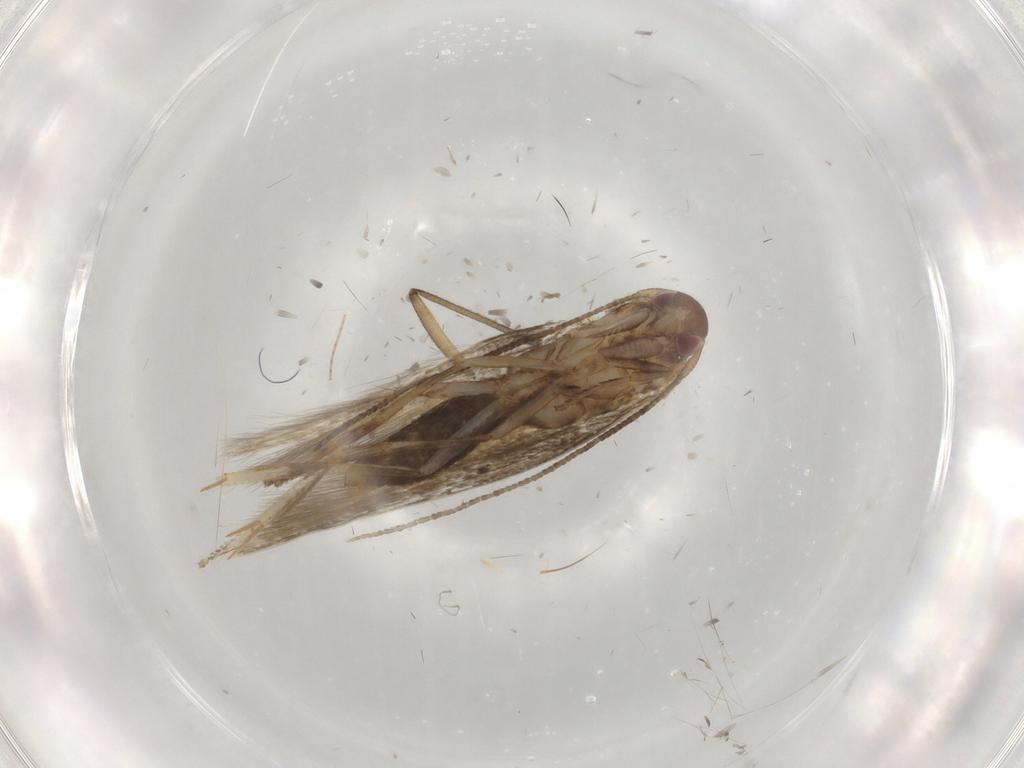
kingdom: Animalia
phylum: Arthropoda
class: Insecta
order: Lepidoptera
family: Momphidae
